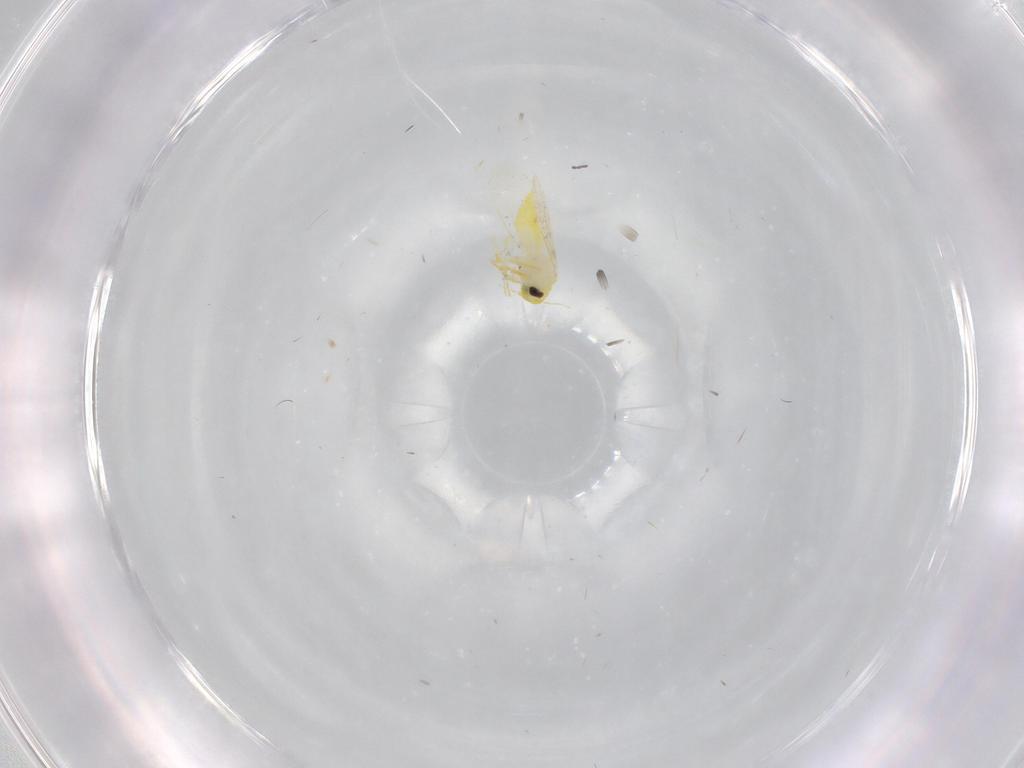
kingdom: Animalia
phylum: Arthropoda
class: Insecta
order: Hemiptera
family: Aleyrodidae
